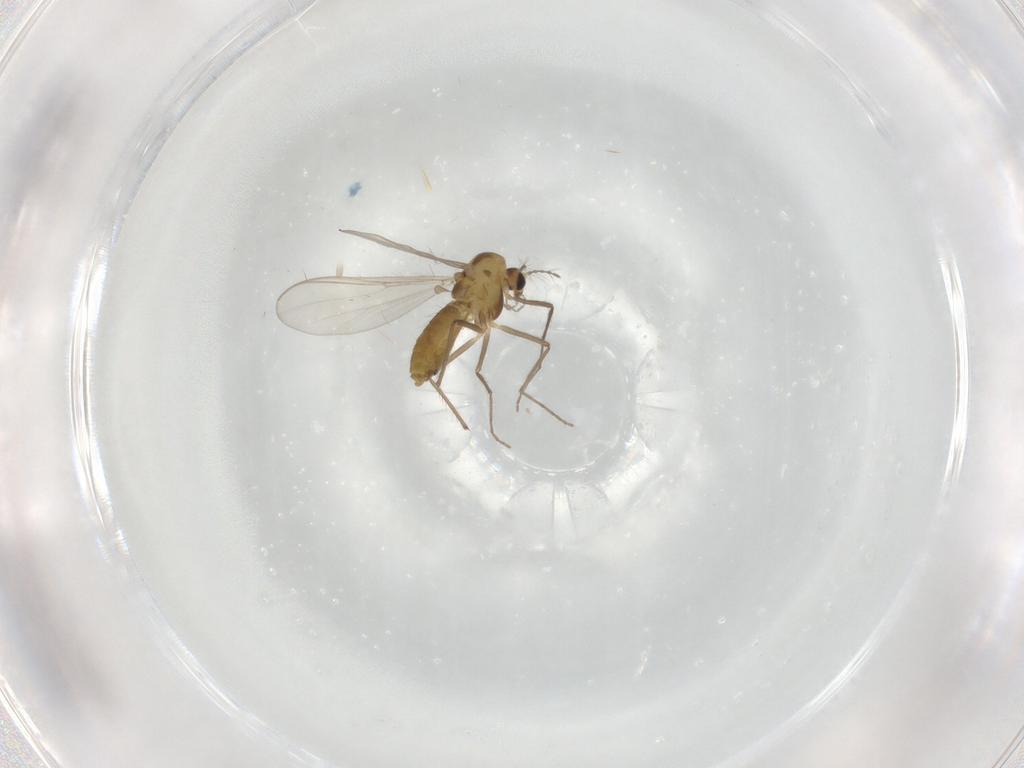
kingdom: Animalia
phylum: Arthropoda
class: Insecta
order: Diptera
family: Chironomidae
